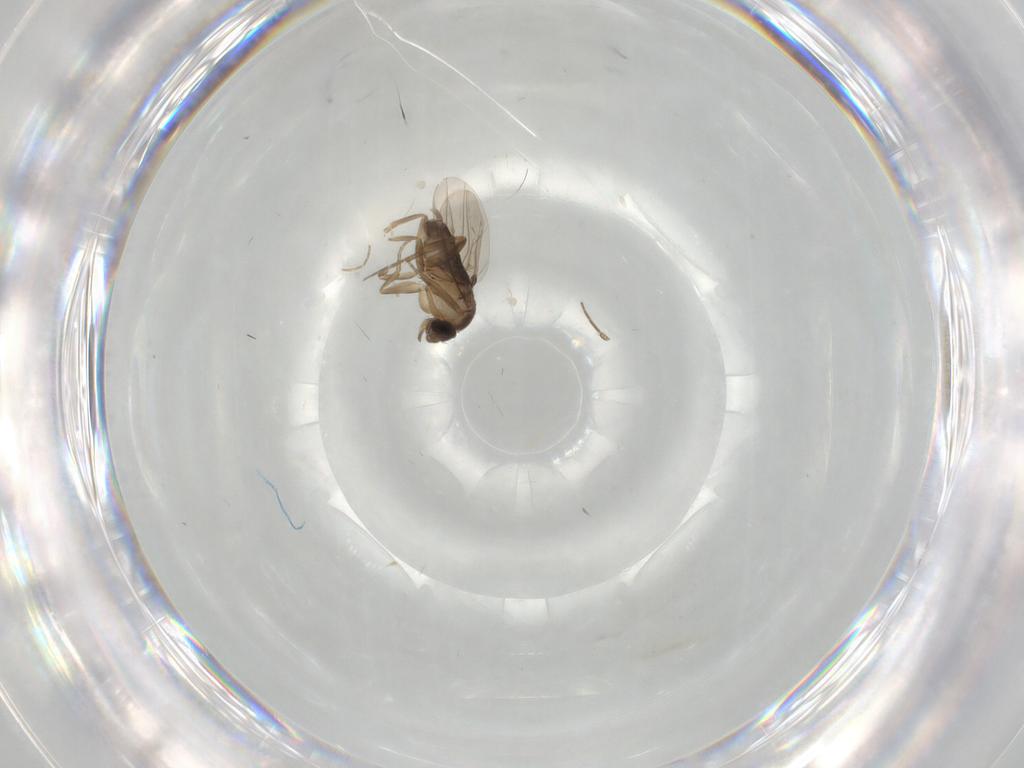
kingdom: Animalia
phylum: Arthropoda
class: Insecta
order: Diptera
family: Phoridae
